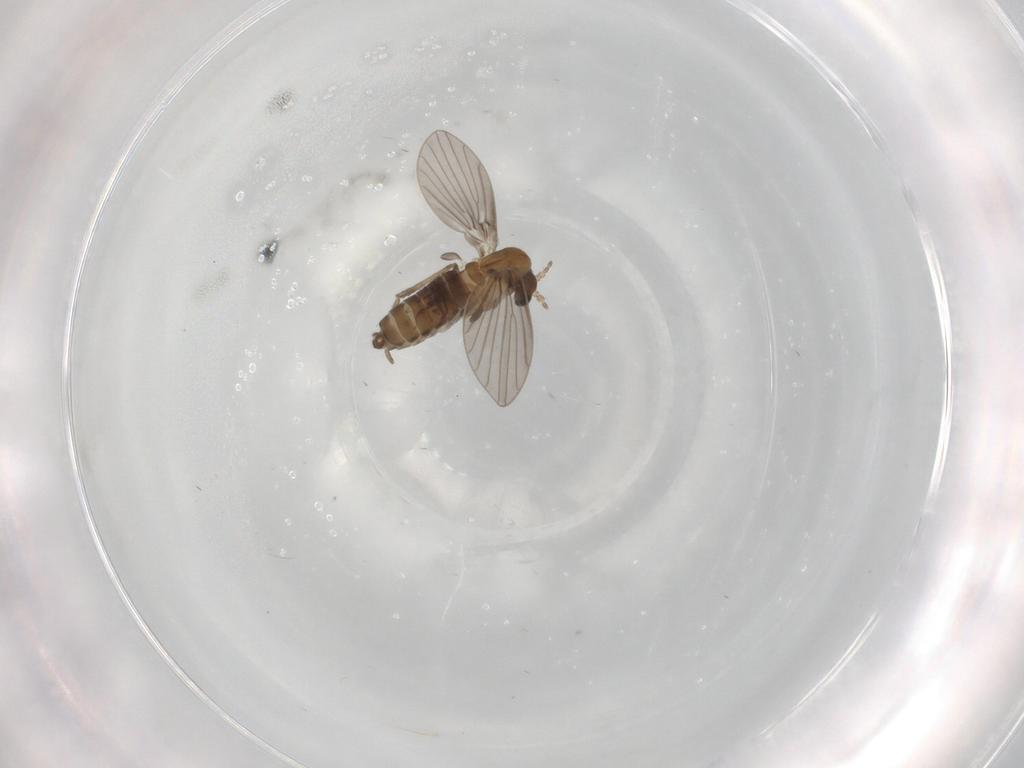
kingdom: Animalia
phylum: Arthropoda
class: Insecta
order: Diptera
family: Psychodidae
